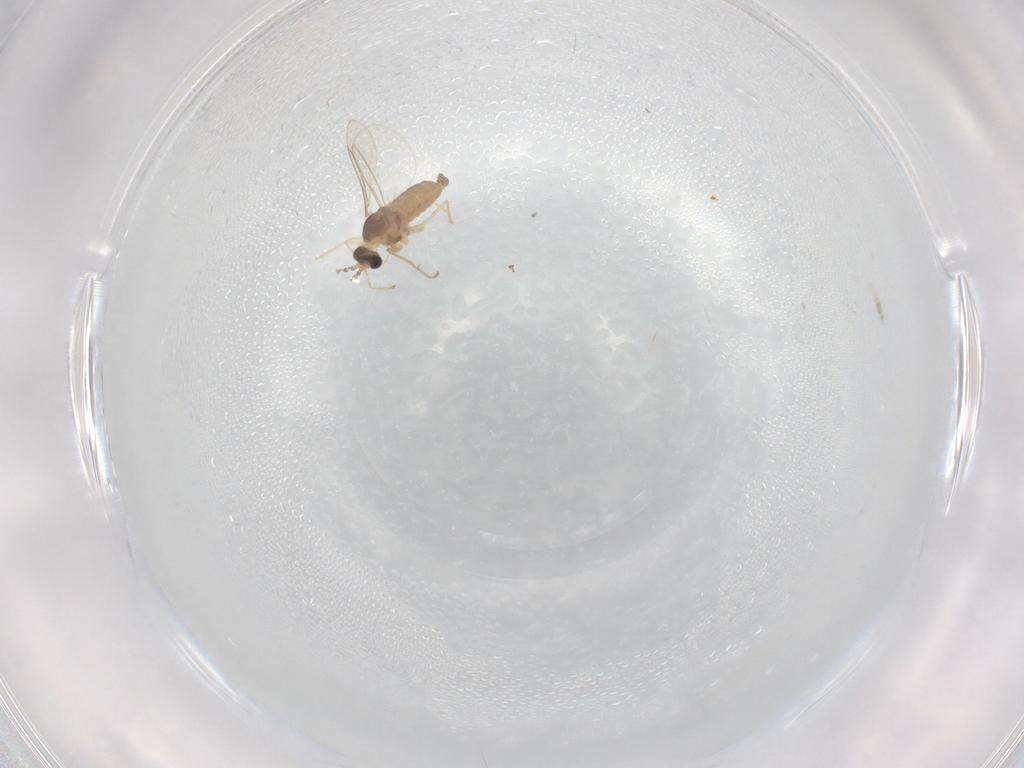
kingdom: Animalia
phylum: Arthropoda
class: Insecta
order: Diptera
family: Cecidomyiidae
